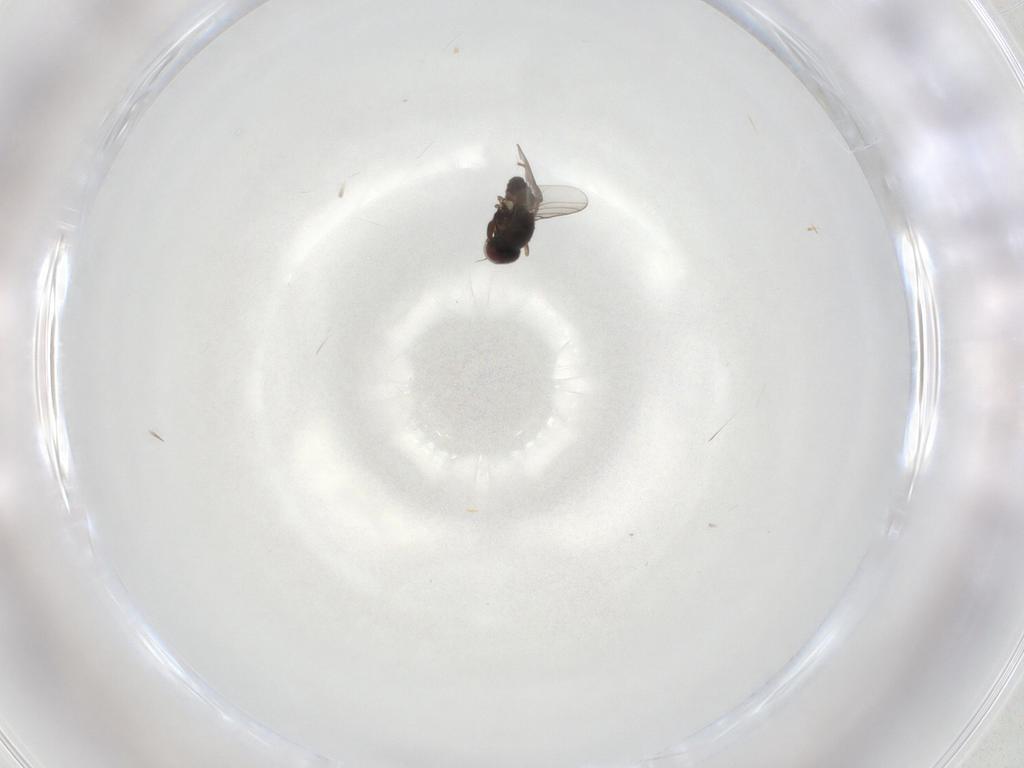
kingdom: Animalia
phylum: Arthropoda
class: Insecta
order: Diptera
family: Chloropidae
